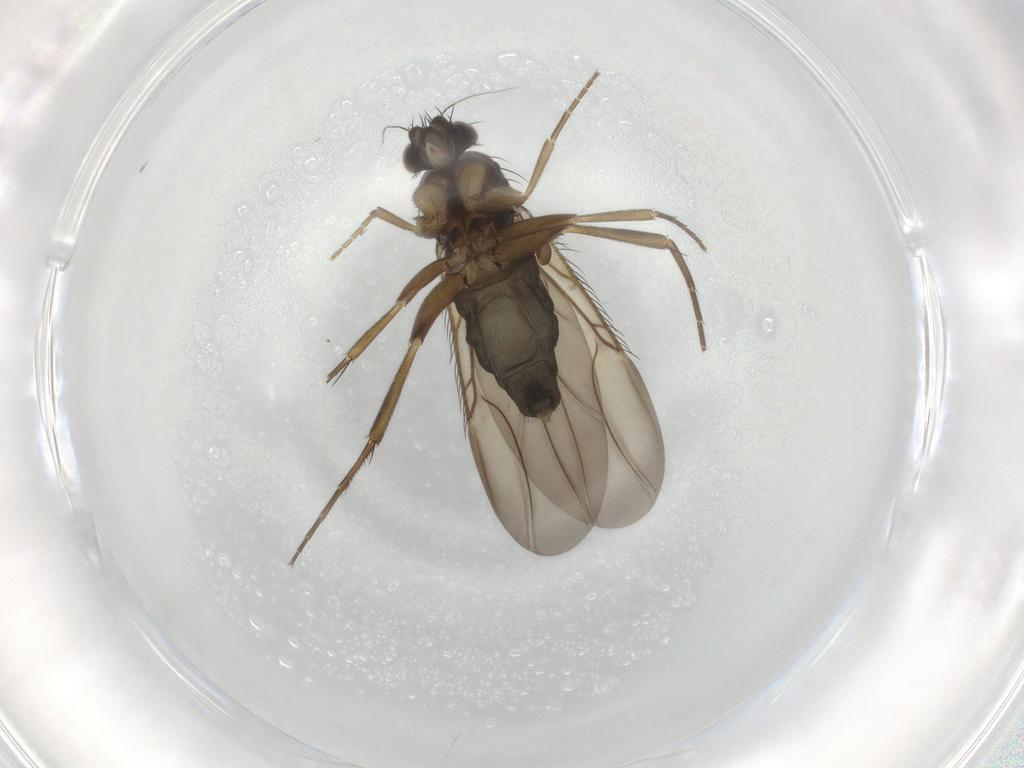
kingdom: Animalia
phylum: Arthropoda
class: Insecta
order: Diptera
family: Phoridae
